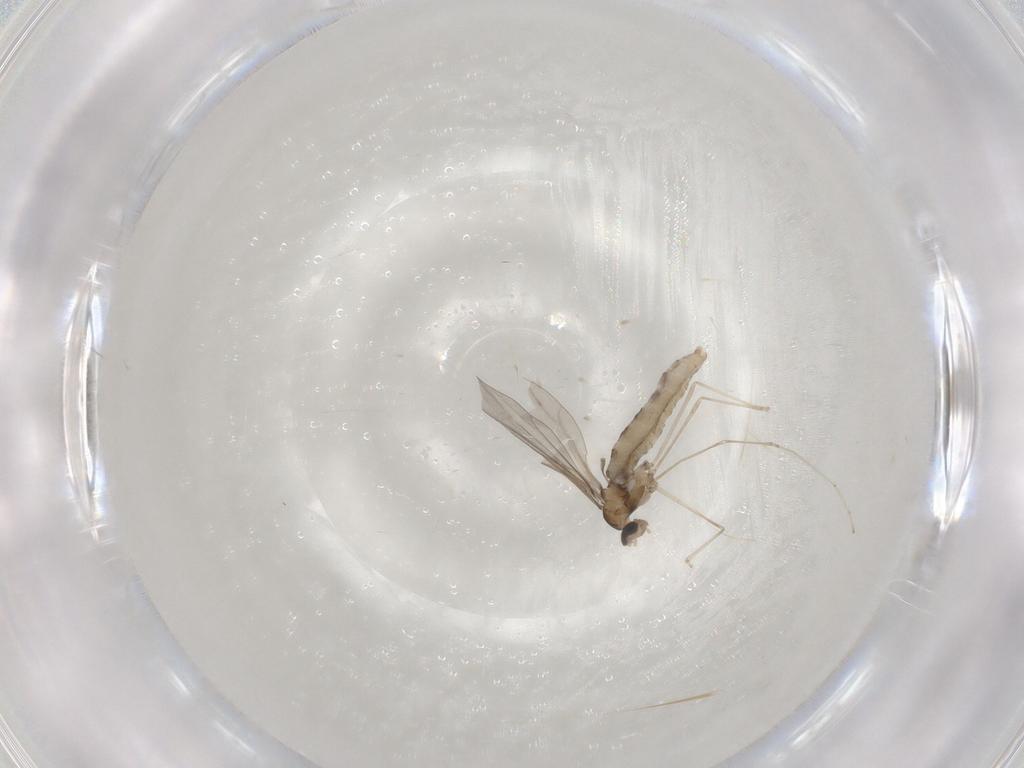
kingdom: Animalia
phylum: Arthropoda
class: Insecta
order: Diptera
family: Cecidomyiidae
